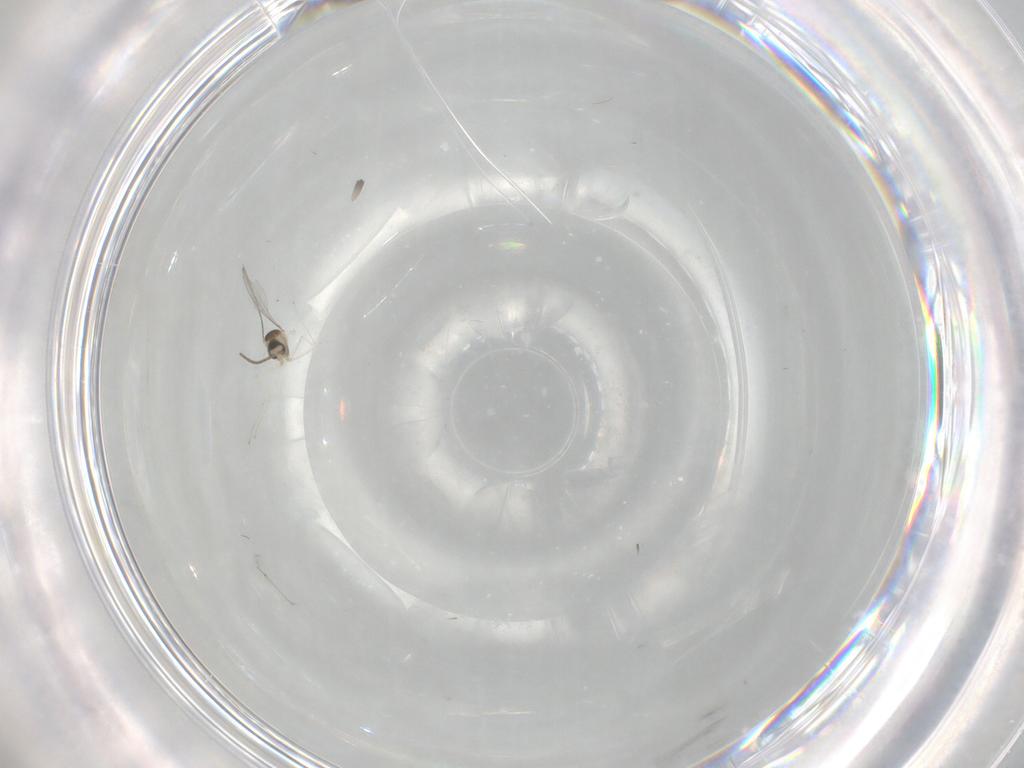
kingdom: Animalia
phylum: Arthropoda
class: Insecta
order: Diptera
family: Cecidomyiidae
